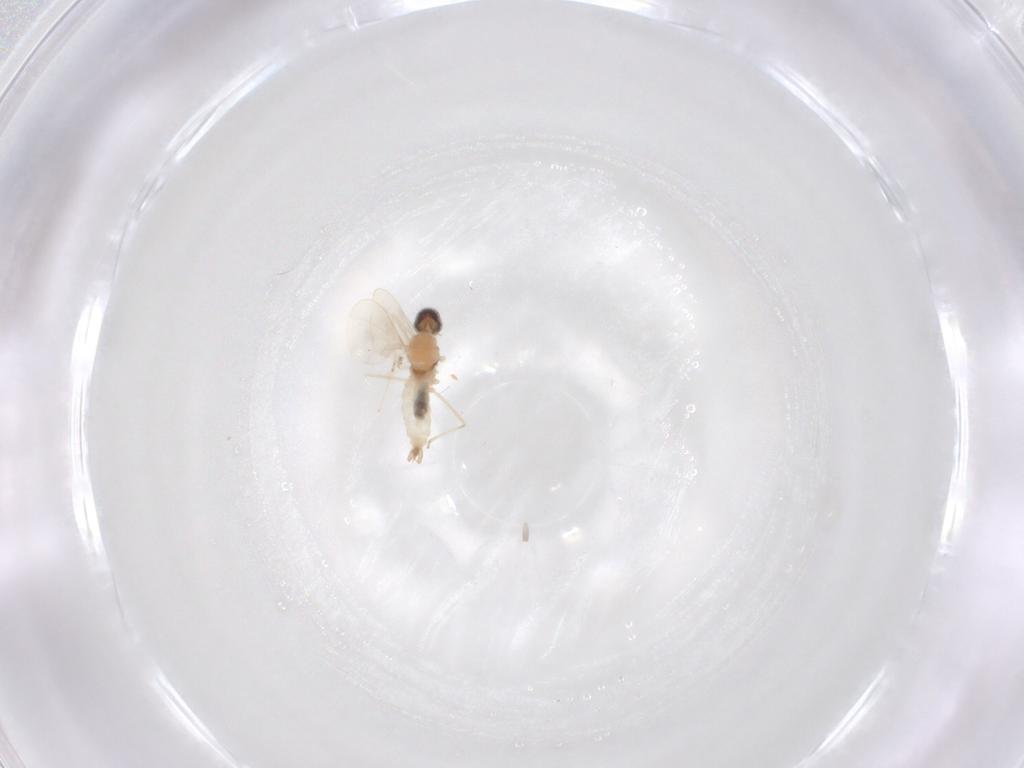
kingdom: Animalia
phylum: Arthropoda
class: Insecta
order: Diptera
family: Cecidomyiidae
